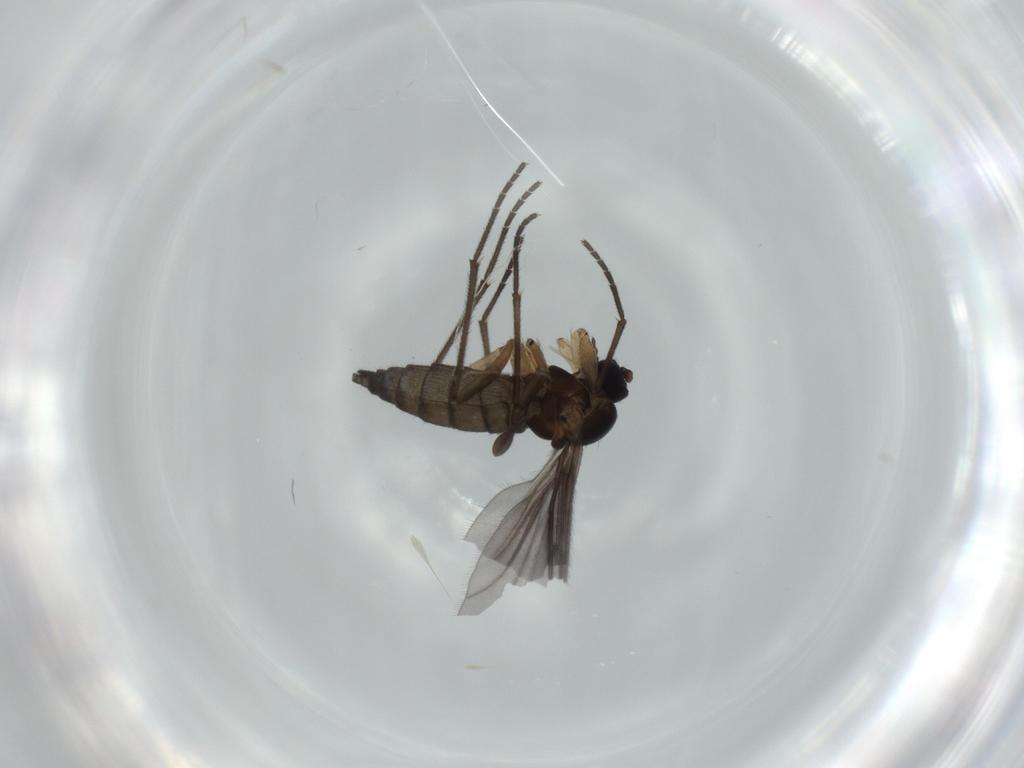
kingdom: Animalia
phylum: Arthropoda
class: Insecta
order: Diptera
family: Sciaridae
